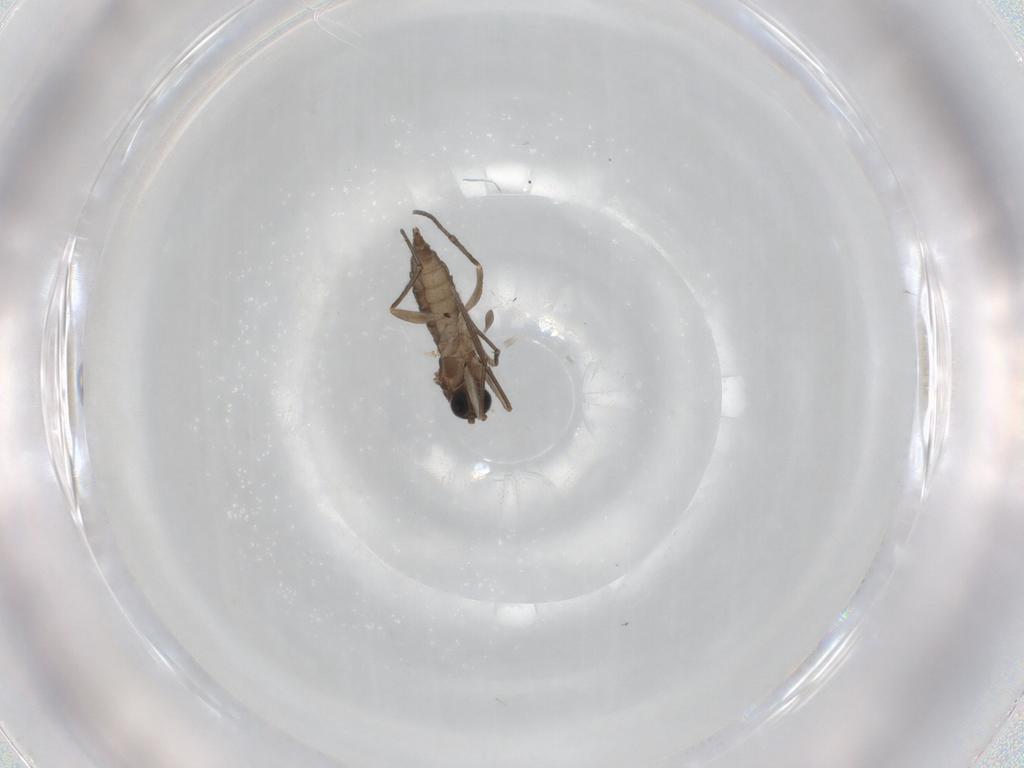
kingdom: Animalia
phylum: Arthropoda
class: Insecta
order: Diptera
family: Sciaridae
